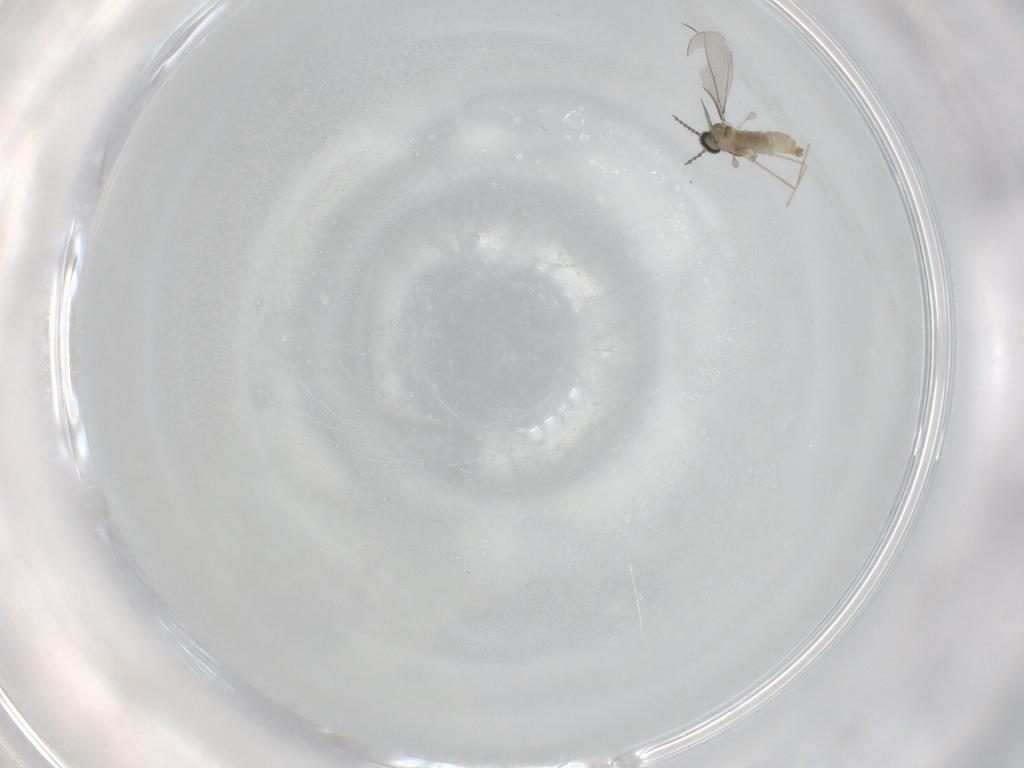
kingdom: Animalia
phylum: Arthropoda
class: Insecta
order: Diptera
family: Cecidomyiidae
